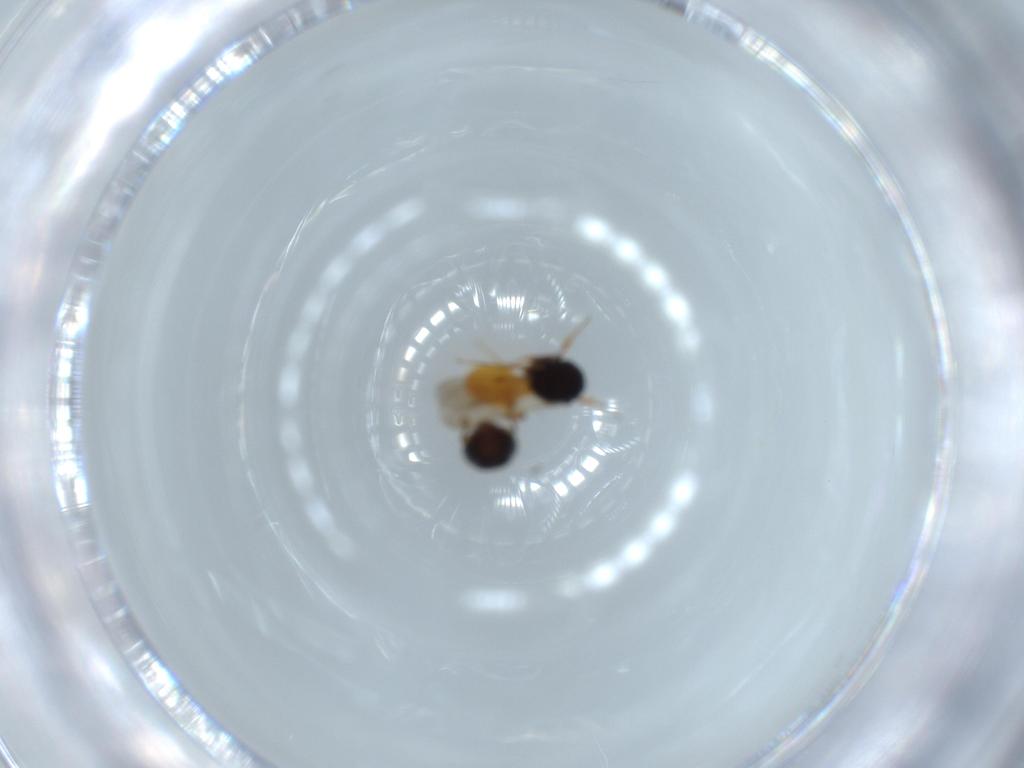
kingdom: Animalia
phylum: Arthropoda
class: Insecta
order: Hymenoptera
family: Scelionidae
